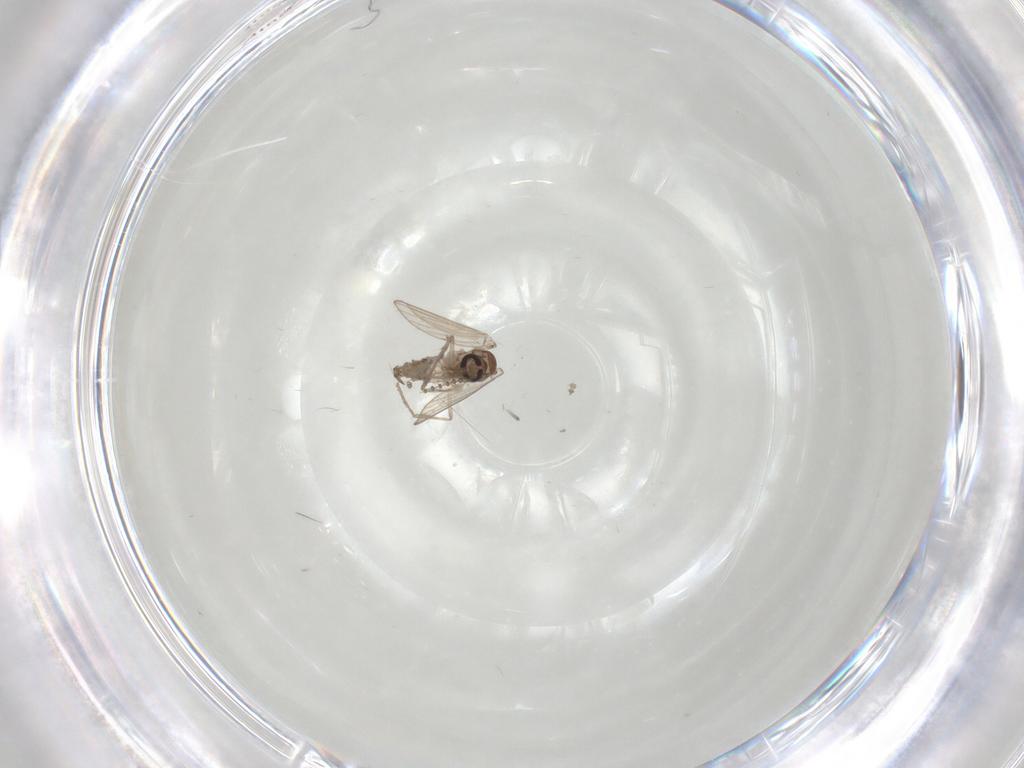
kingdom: Animalia
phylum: Arthropoda
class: Insecta
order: Diptera
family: Psychodidae
